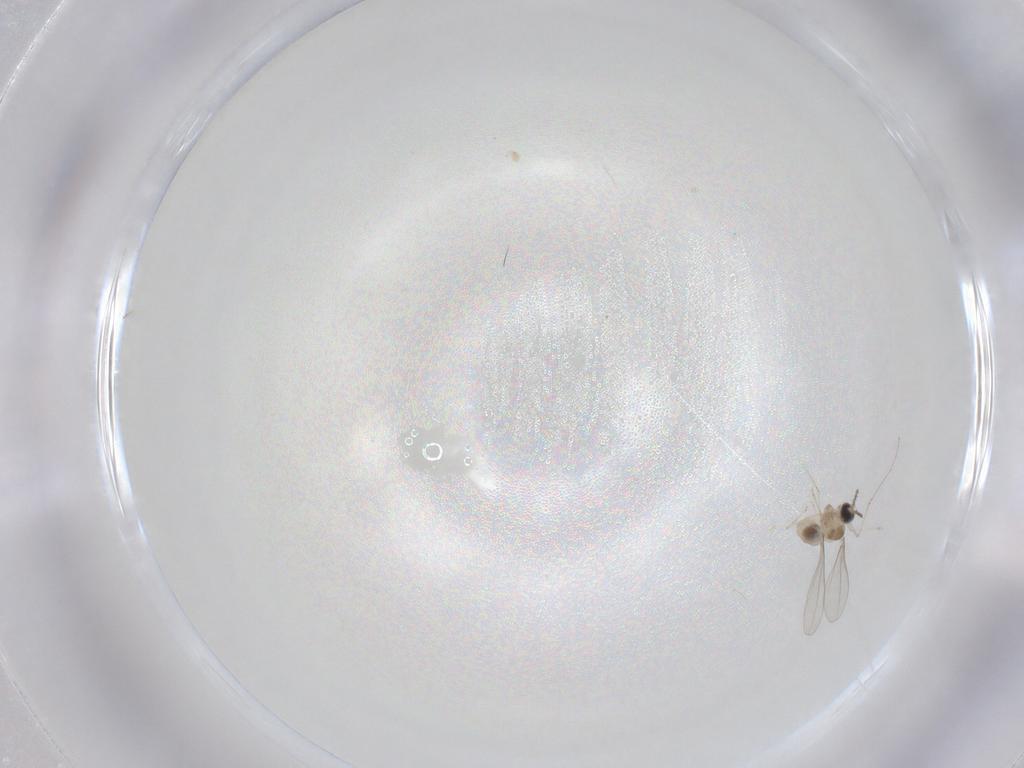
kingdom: Animalia
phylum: Arthropoda
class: Insecta
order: Diptera
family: Cecidomyiidae
